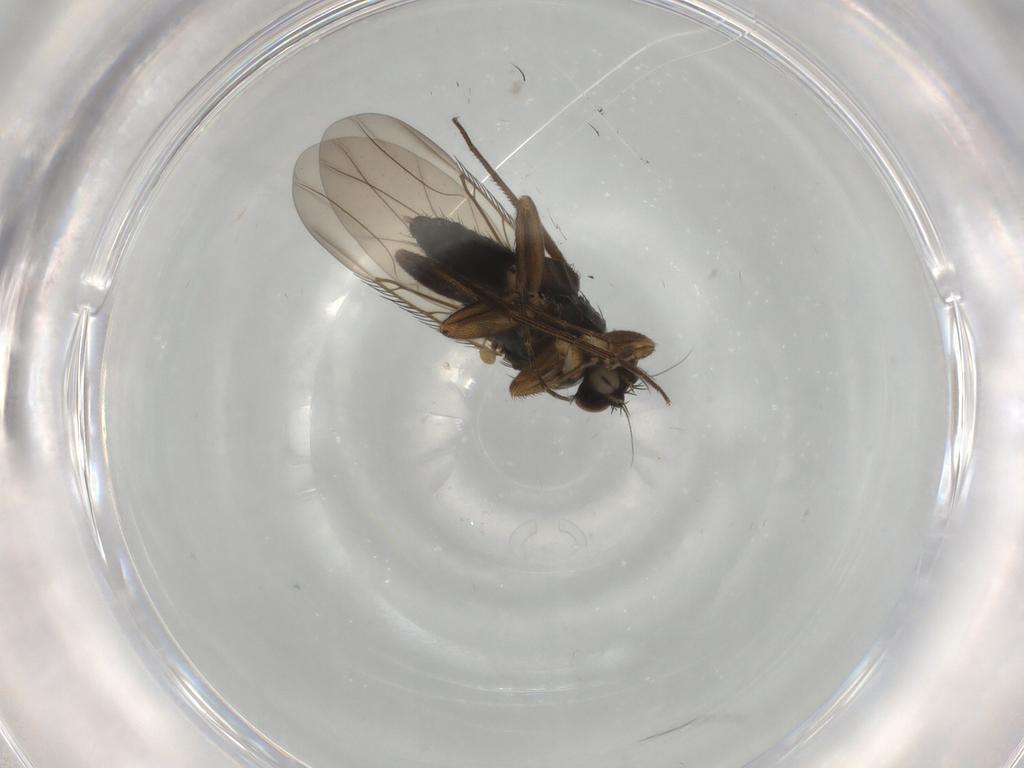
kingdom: Animalia
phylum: Arthropoda
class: Insecta
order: Diptera
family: Phoridae
